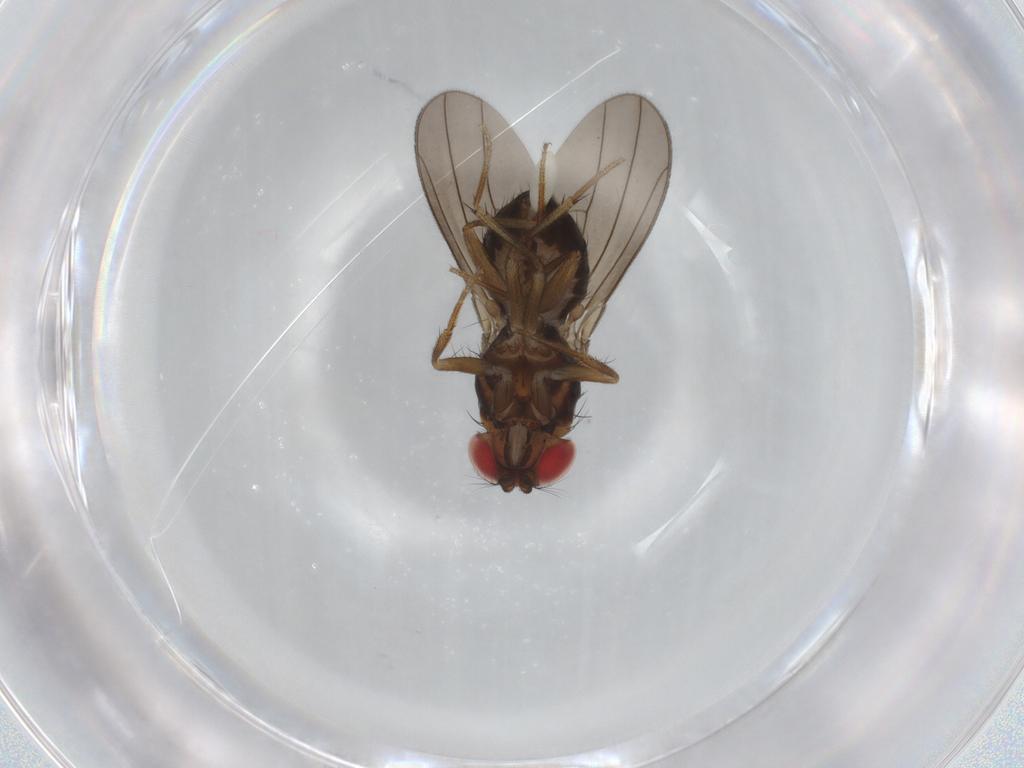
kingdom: Animalia
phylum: Arthropoda
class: Insecta
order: Diptera
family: Drosophilidae
